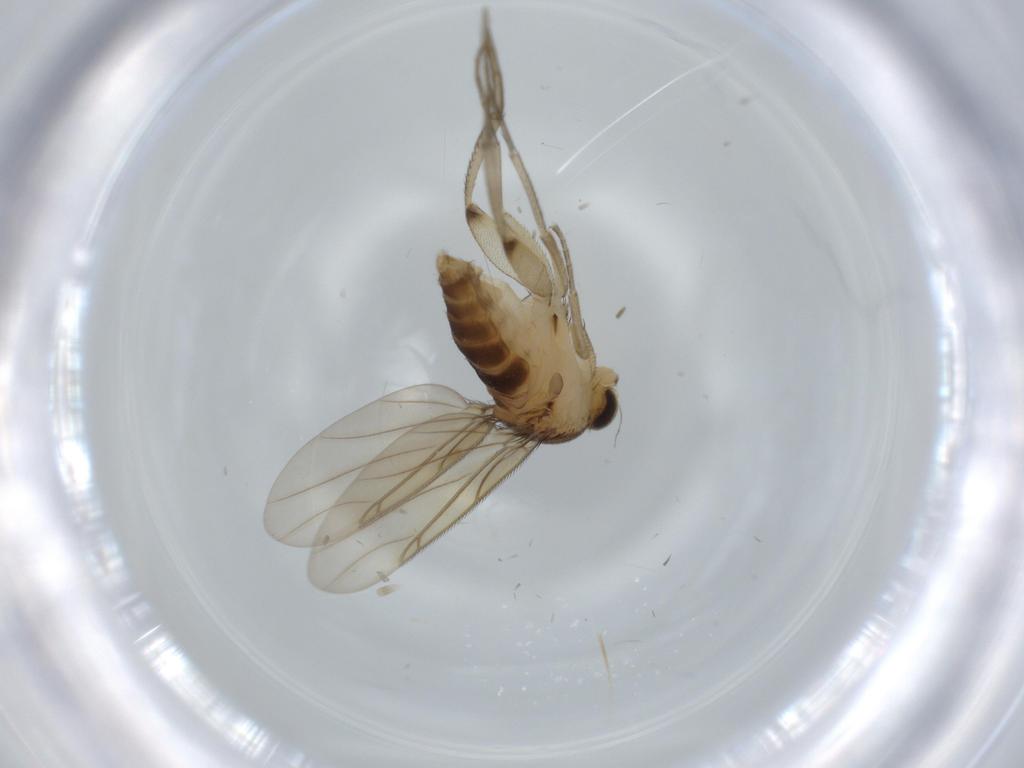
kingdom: Animalia
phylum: Arthropoda
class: Insecta
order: Diptera
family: Phoridae
